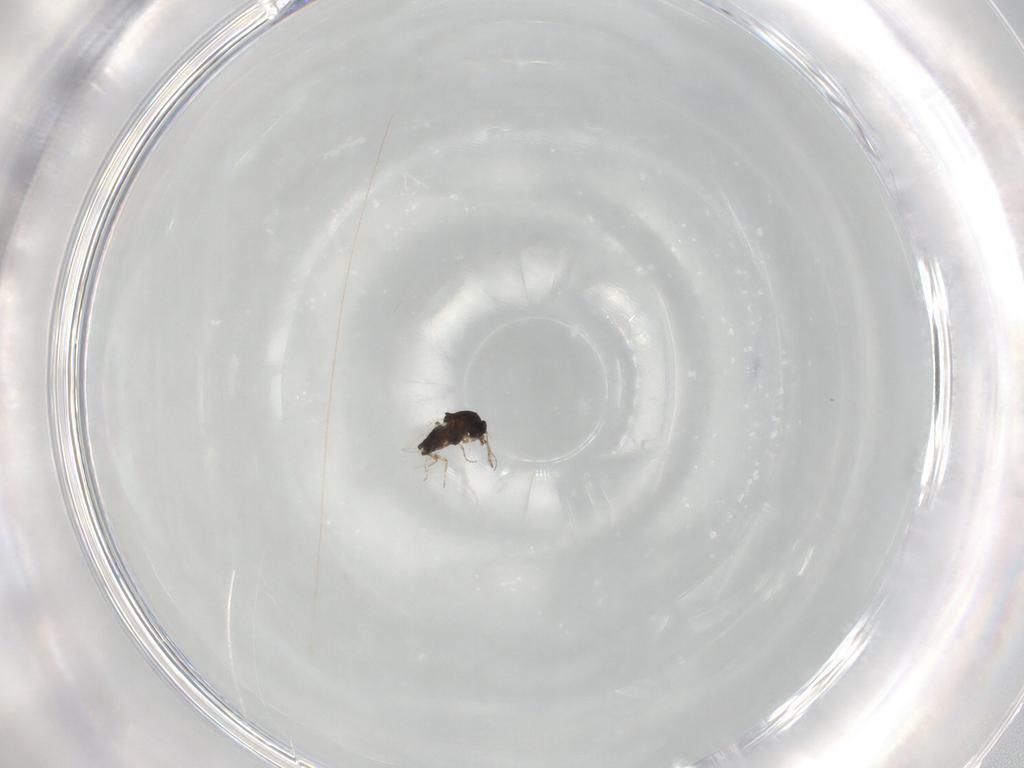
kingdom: Animalia
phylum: Arthropoda
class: Insecta
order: Diptera
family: Ceratopogonidae
